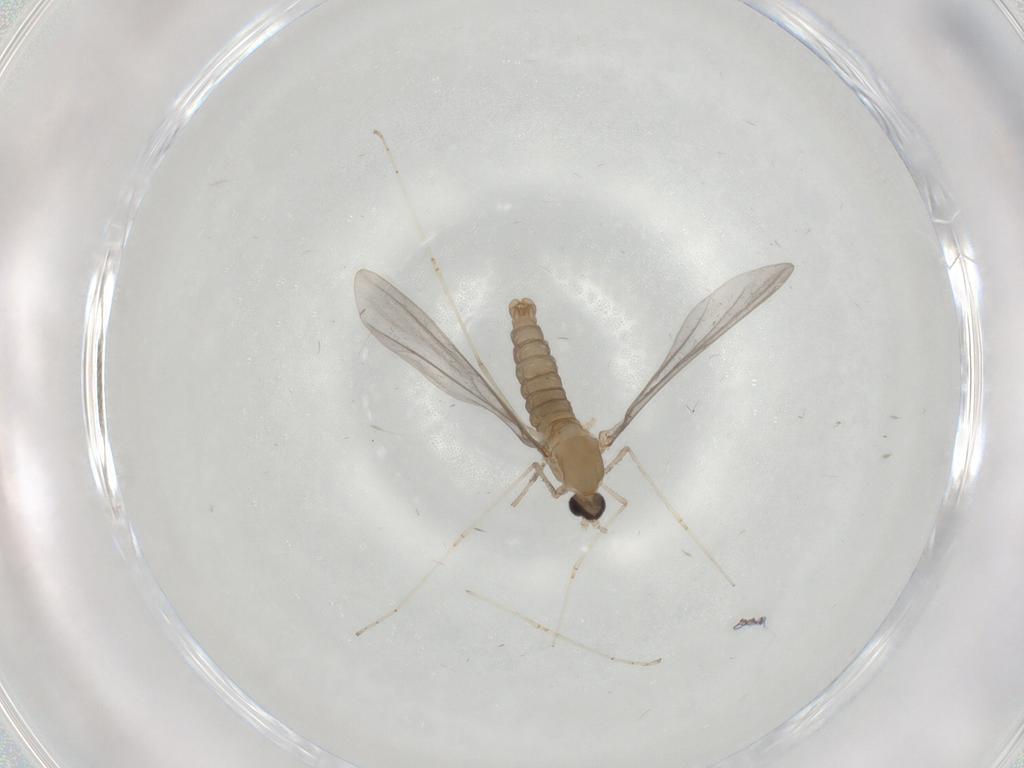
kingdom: Animalia
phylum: Arthropoda
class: Insecta
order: Diptera
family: Cecidomyiidae
